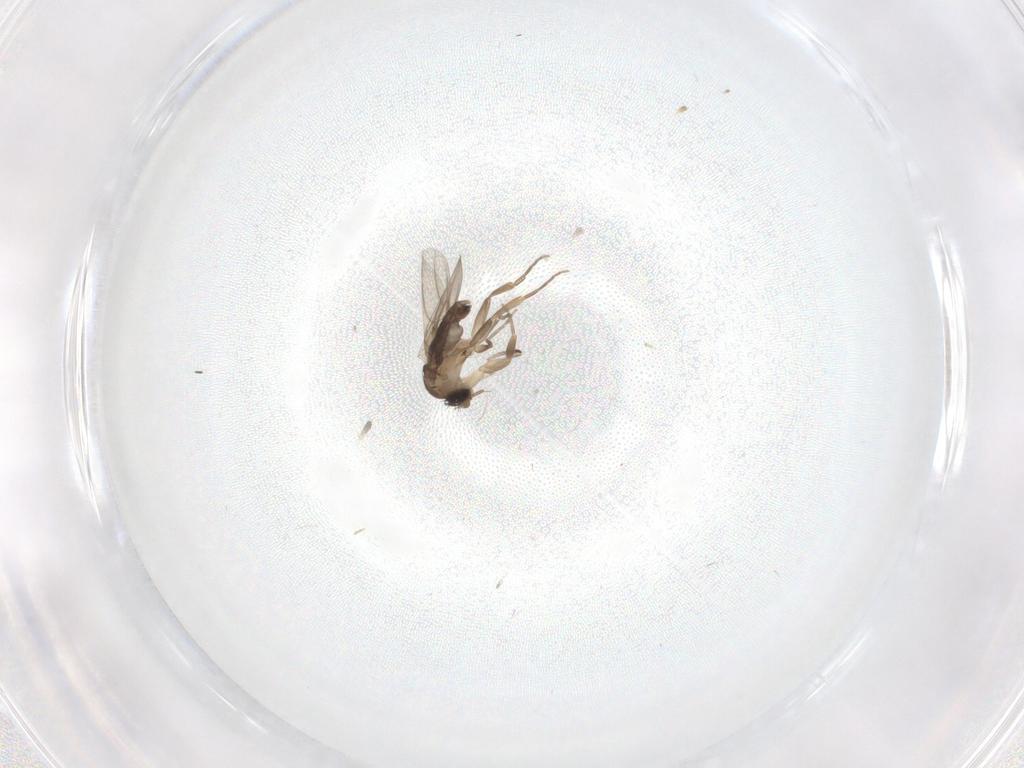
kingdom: Animalia
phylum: Arthropoda
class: Insecta
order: Diptera
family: Phoridae
